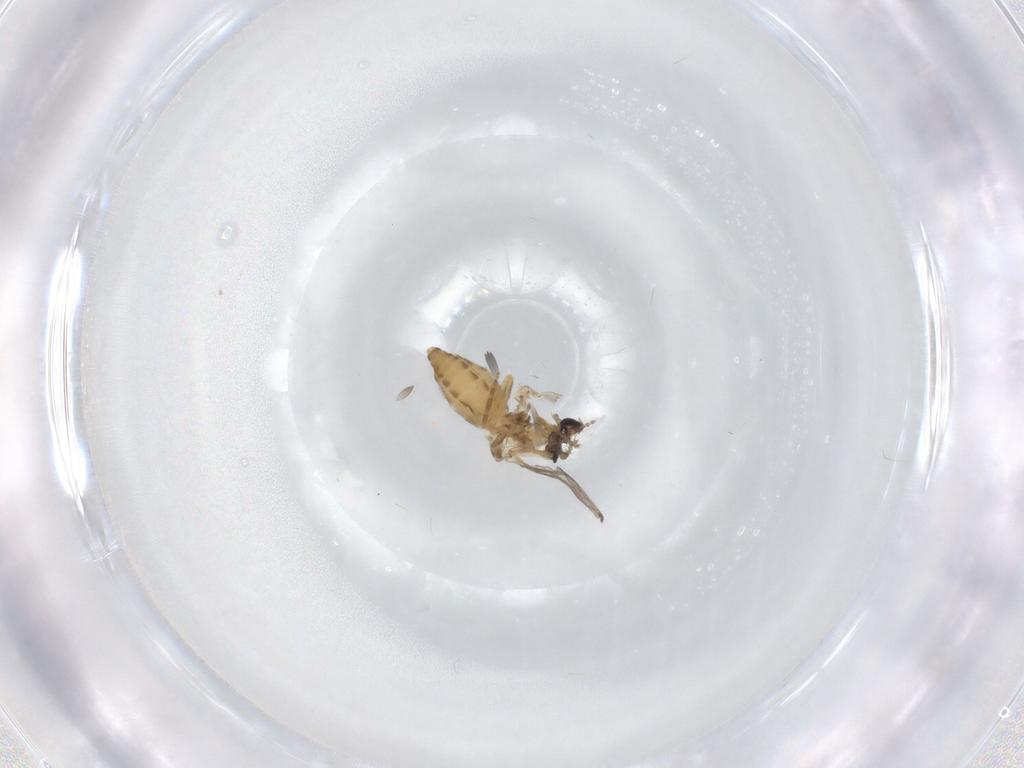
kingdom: Animalia
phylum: Arthropoda
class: Insecta
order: Diptera
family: Ceratopogonidae
